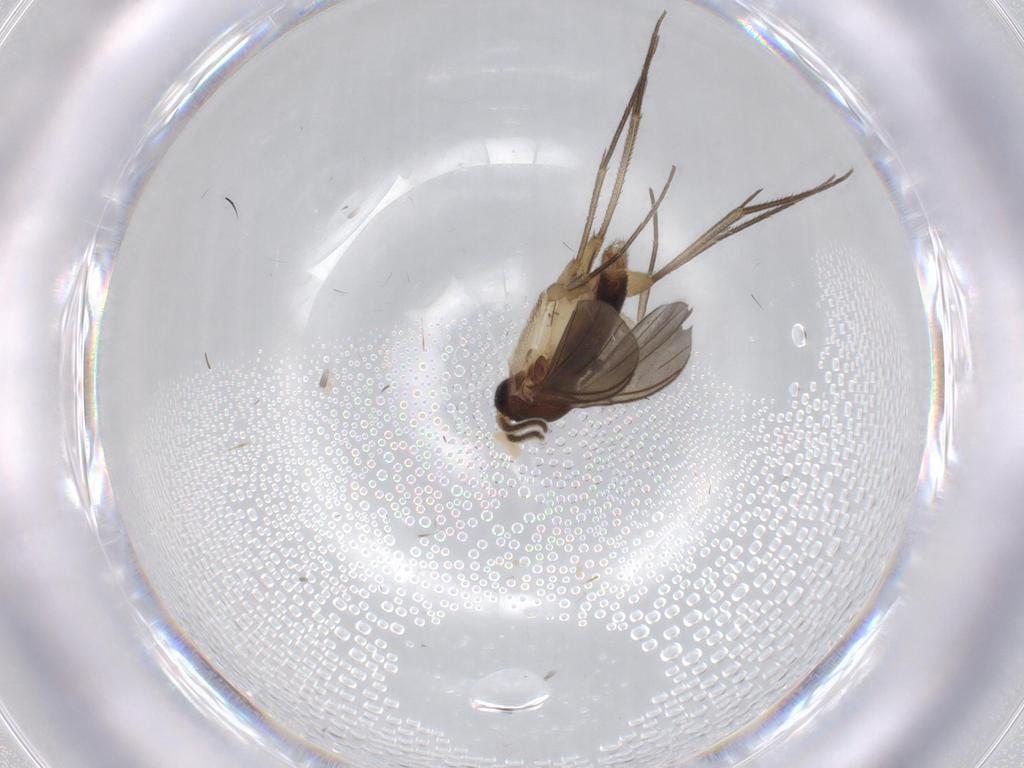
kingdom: Animalia
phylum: Arthropoda
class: Insecta
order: Diptera
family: Mycetophilidae
